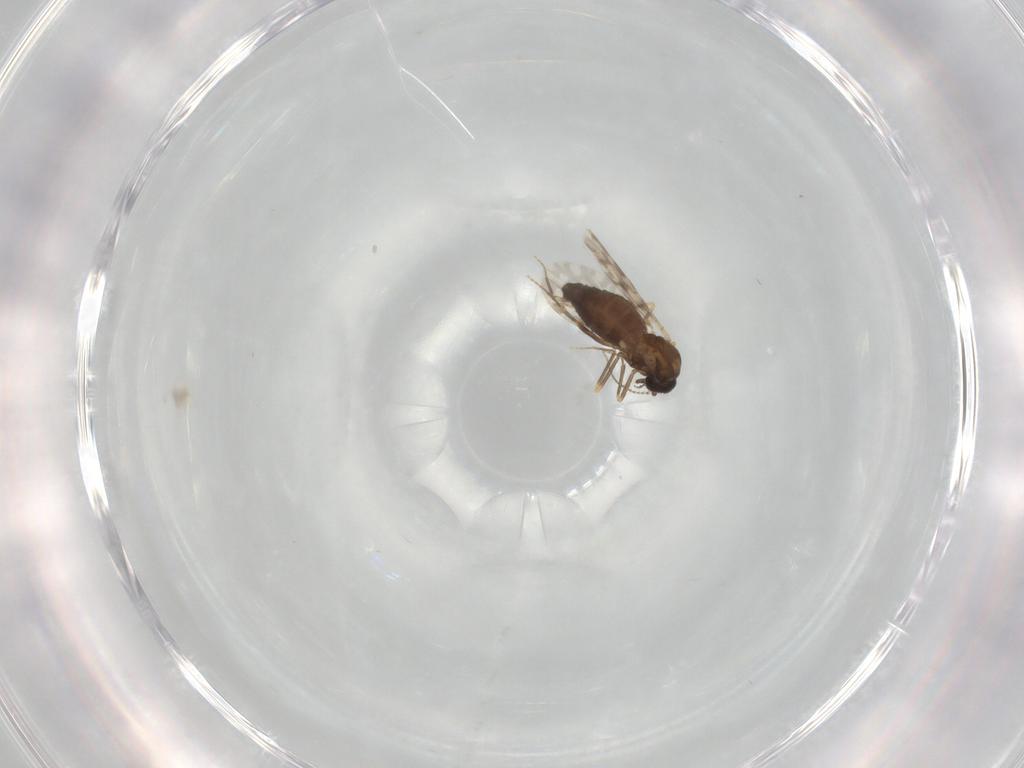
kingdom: Animalia
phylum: Arthropoda
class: Insecta
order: Diptera
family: Ceratopogonidae
